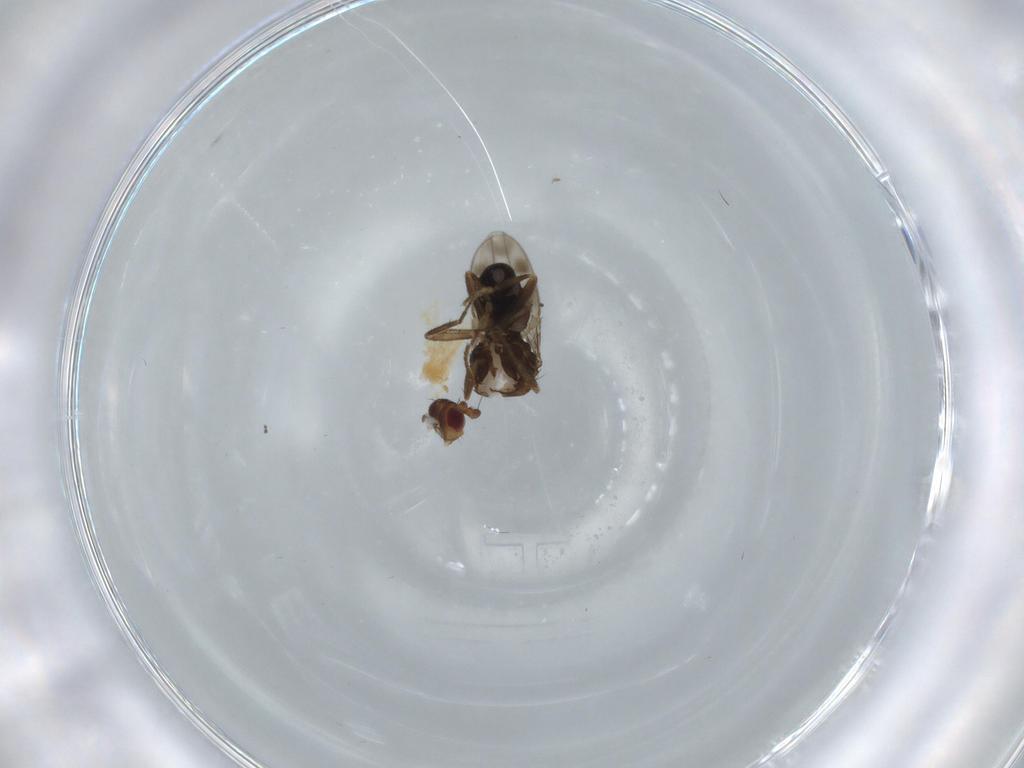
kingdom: Animalia
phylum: Arthropoda
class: Insecta
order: Diptera
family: Sphaeroceridae
